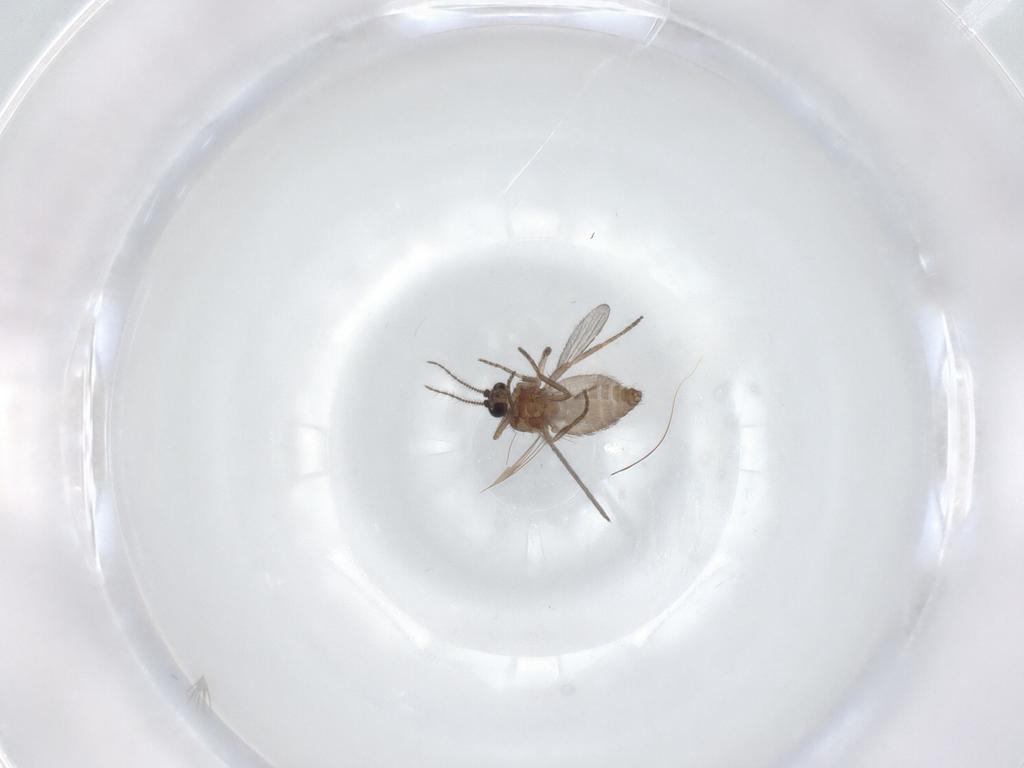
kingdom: Animalia
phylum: Arthropoda
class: Insecta
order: Diptera
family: Ceratopogonidae
